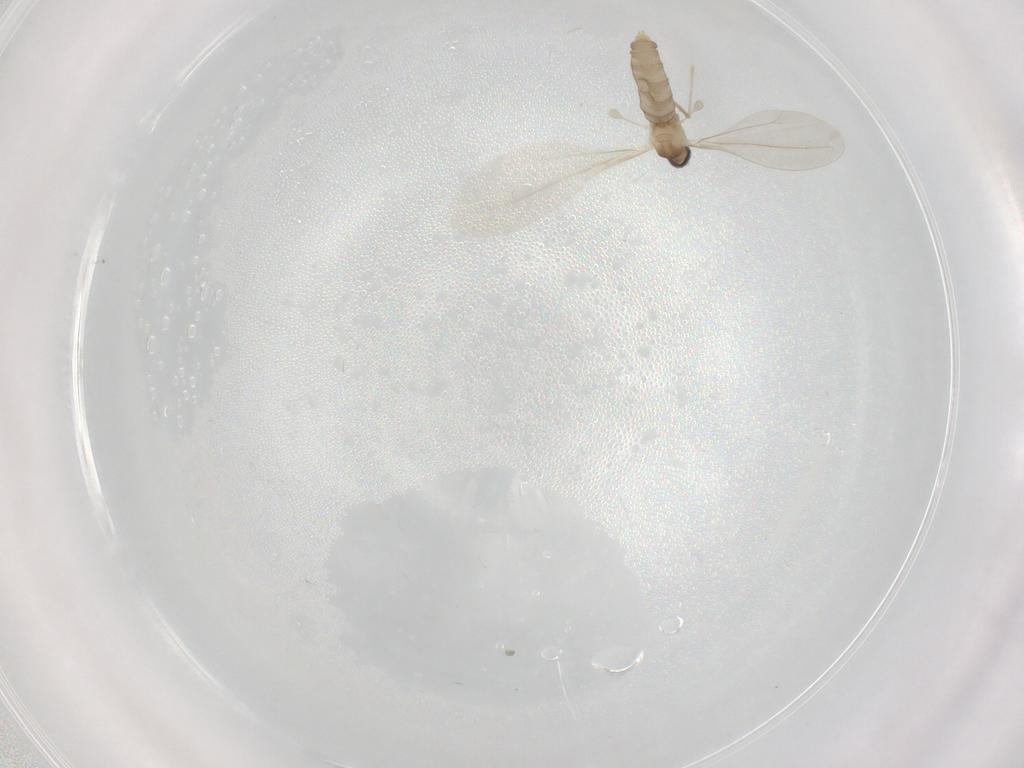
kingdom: Animalia
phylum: Arthropoda
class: Insecta
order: Diptera
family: Cecidomyiidae
